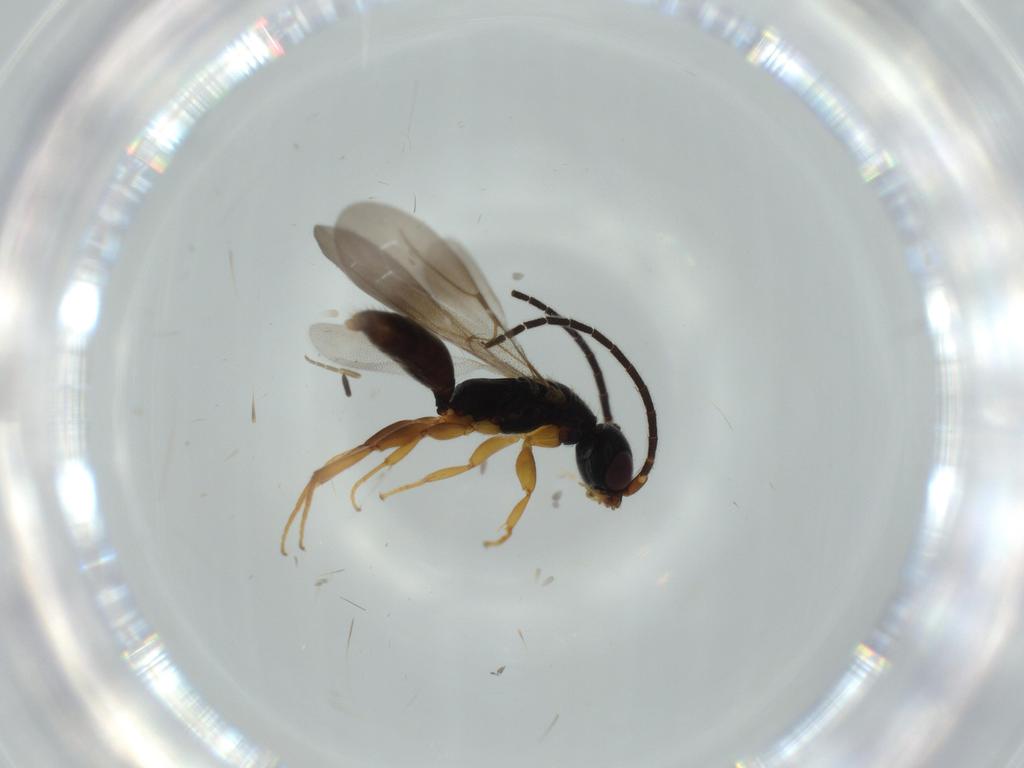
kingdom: Animalia
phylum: Arthropoda
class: Insecta
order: Hymenoptera
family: Bethylidae
